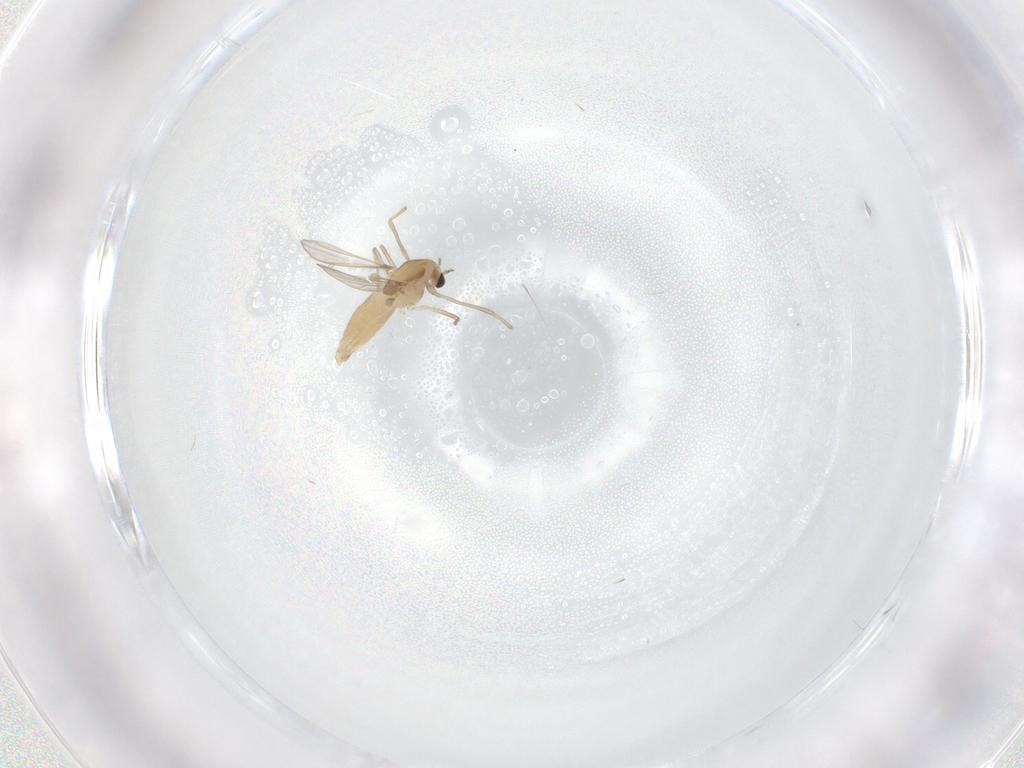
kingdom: Animalia
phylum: Arthropoda
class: Insecta
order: Diptera
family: Chironomidae
